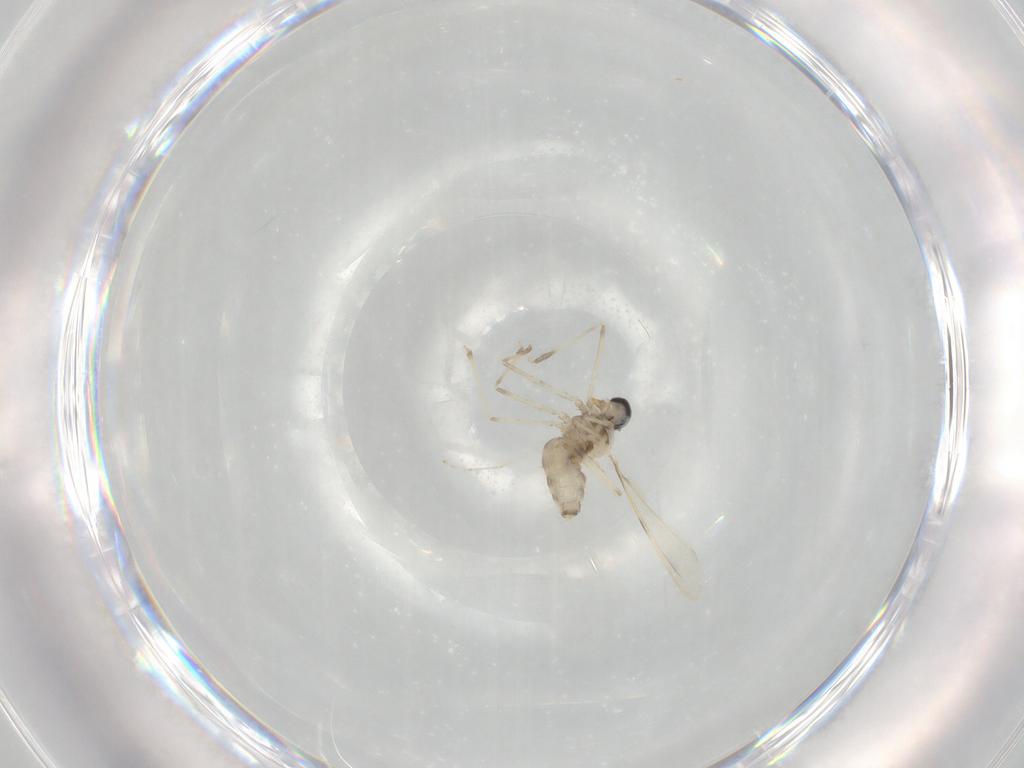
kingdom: Animalia
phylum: Arthropoda
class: Insecta
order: Diptera
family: Cecidomyiidae
